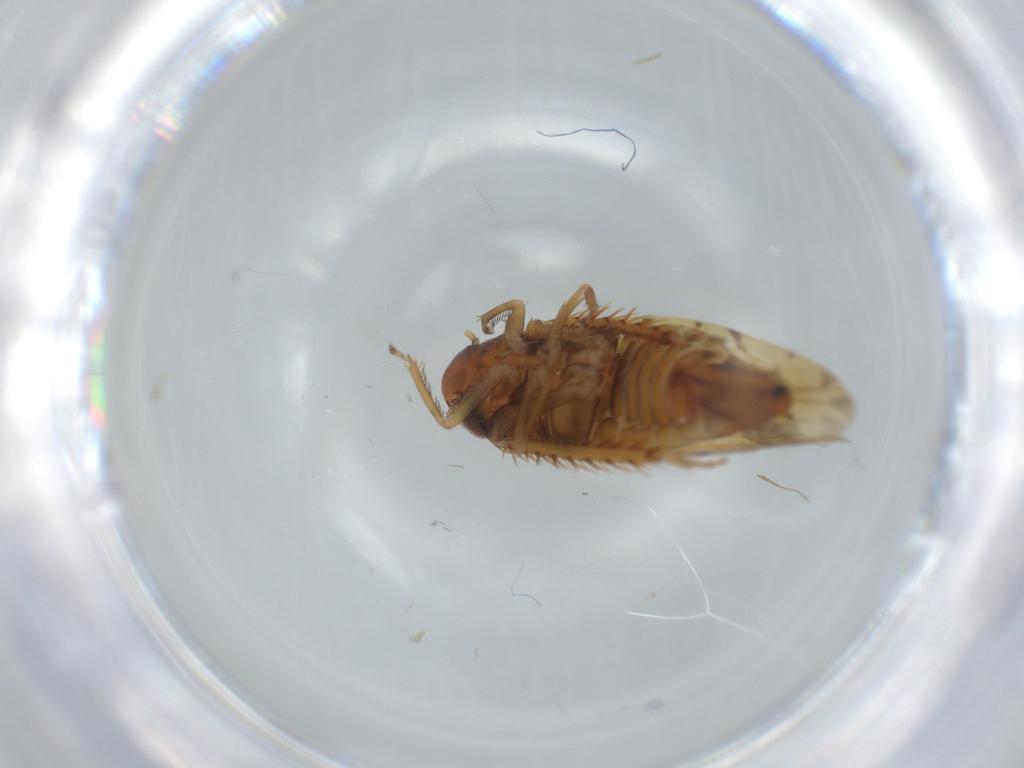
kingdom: Animalia
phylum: Arthropoda
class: Insecta
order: Hemiptera
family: Cicadellidae
